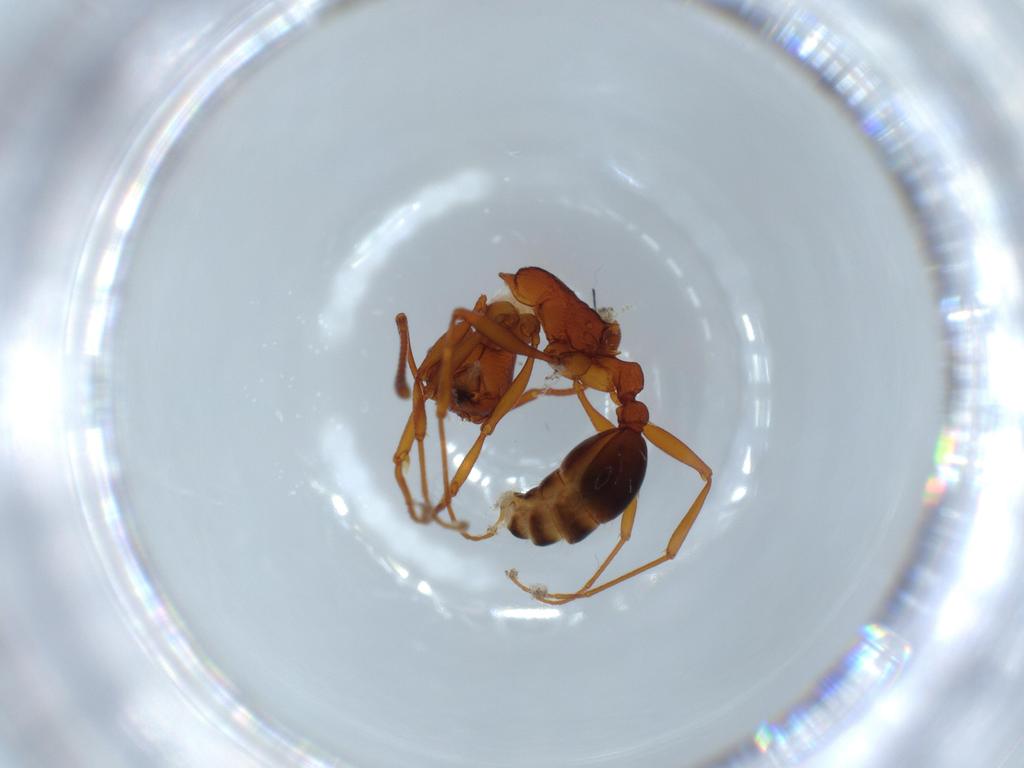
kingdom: Animalia
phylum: Arthropoda
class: Insecta
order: Hymenoptera
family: Formicidae
